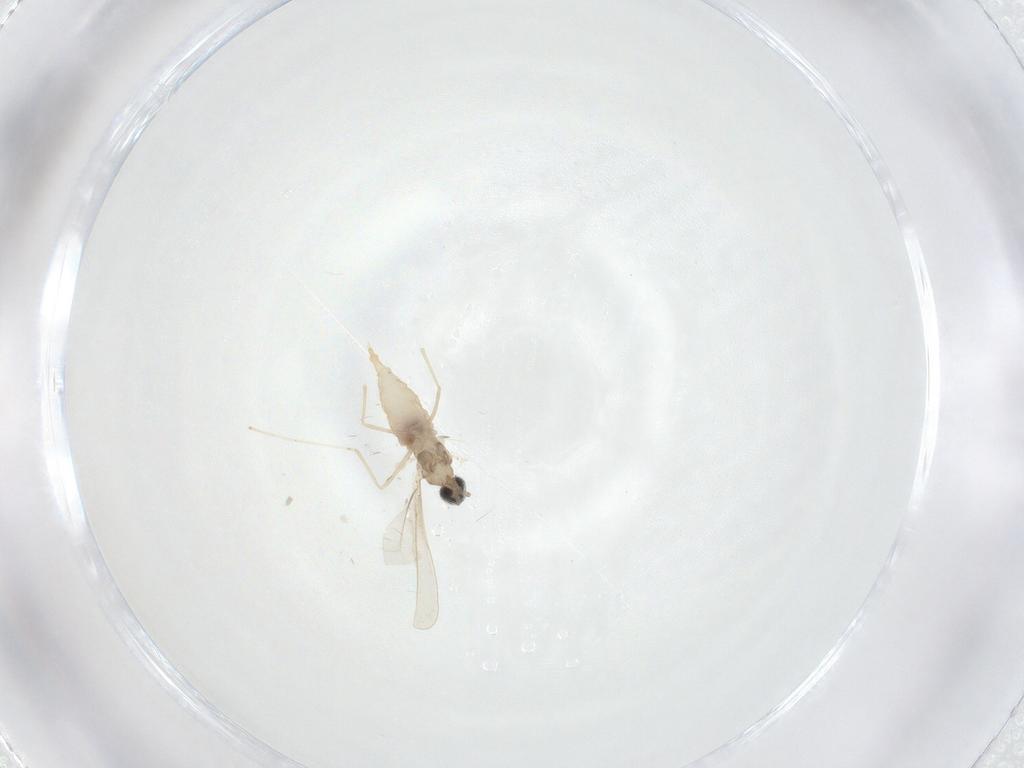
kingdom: Animalia
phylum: Arthropoda
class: Insecta
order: Diptera
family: Cecidomyiidae
